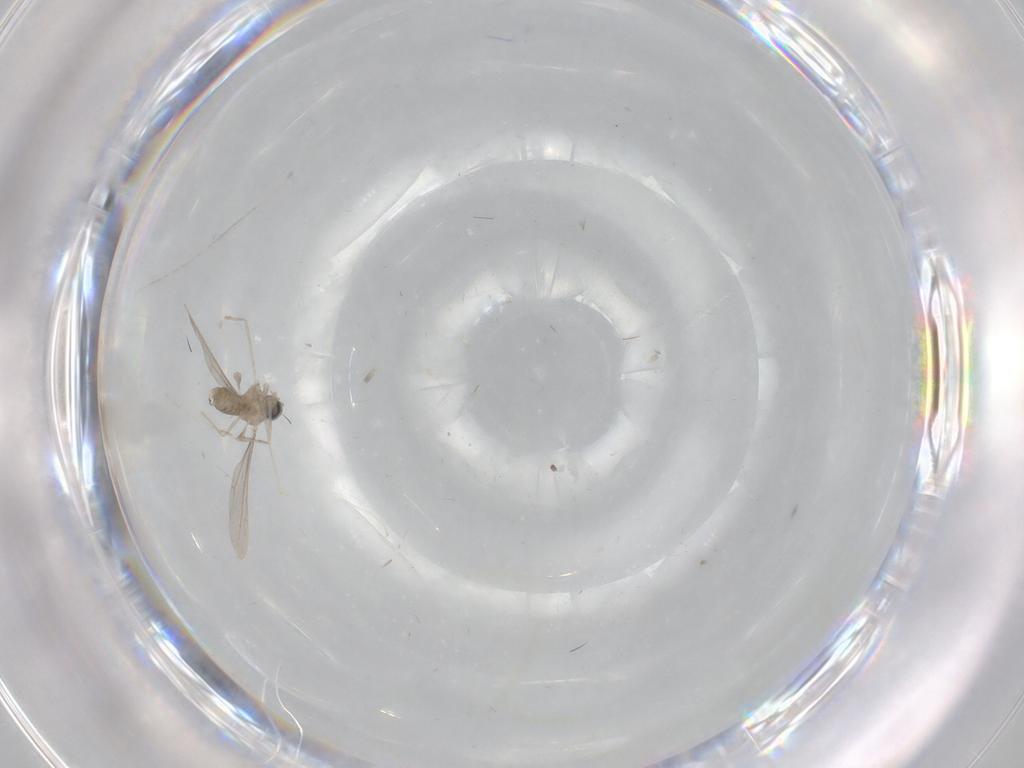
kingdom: Animalia
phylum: Arthropoda
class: Insecta
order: Diptera
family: Cecidomyiidae
